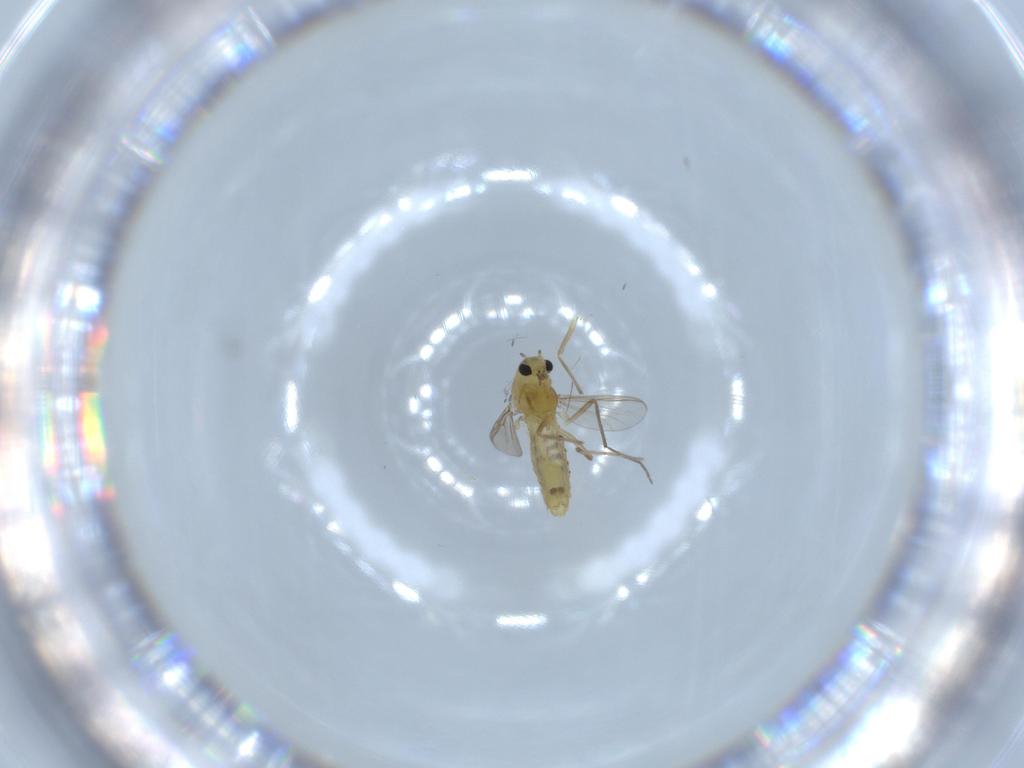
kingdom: Animalia
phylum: Arthropoda
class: Insecta
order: Diptera
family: Chironomidae
